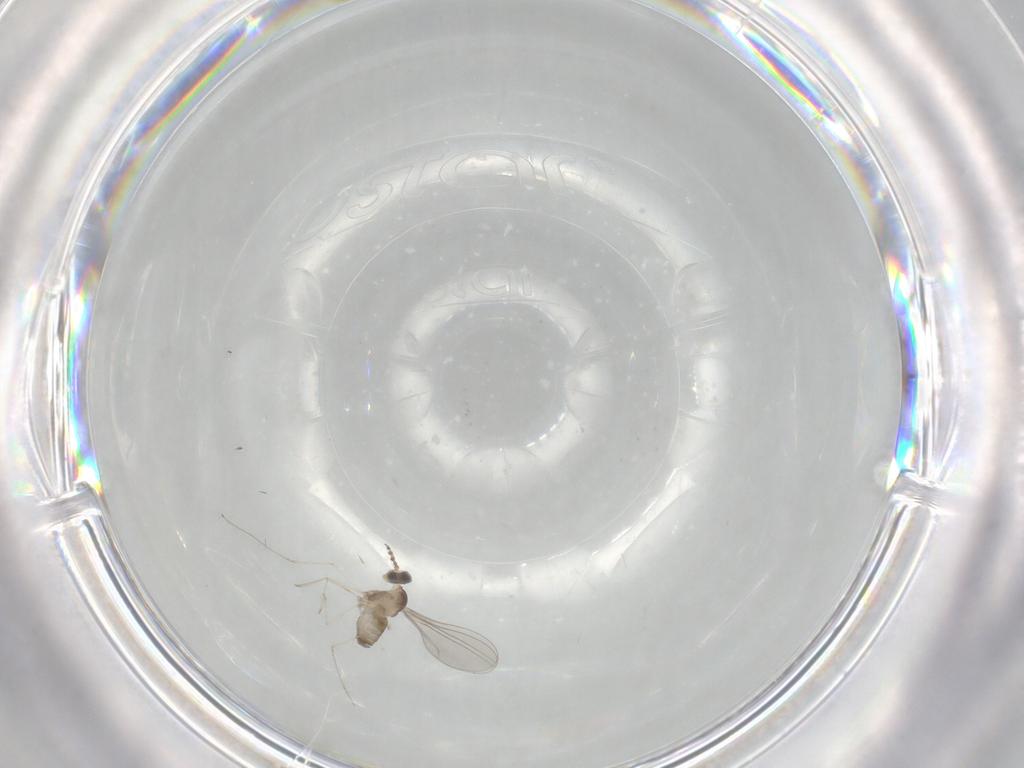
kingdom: Animalia
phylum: Arthropoda
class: Insecta
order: Diptera
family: Cecidomyiidae
